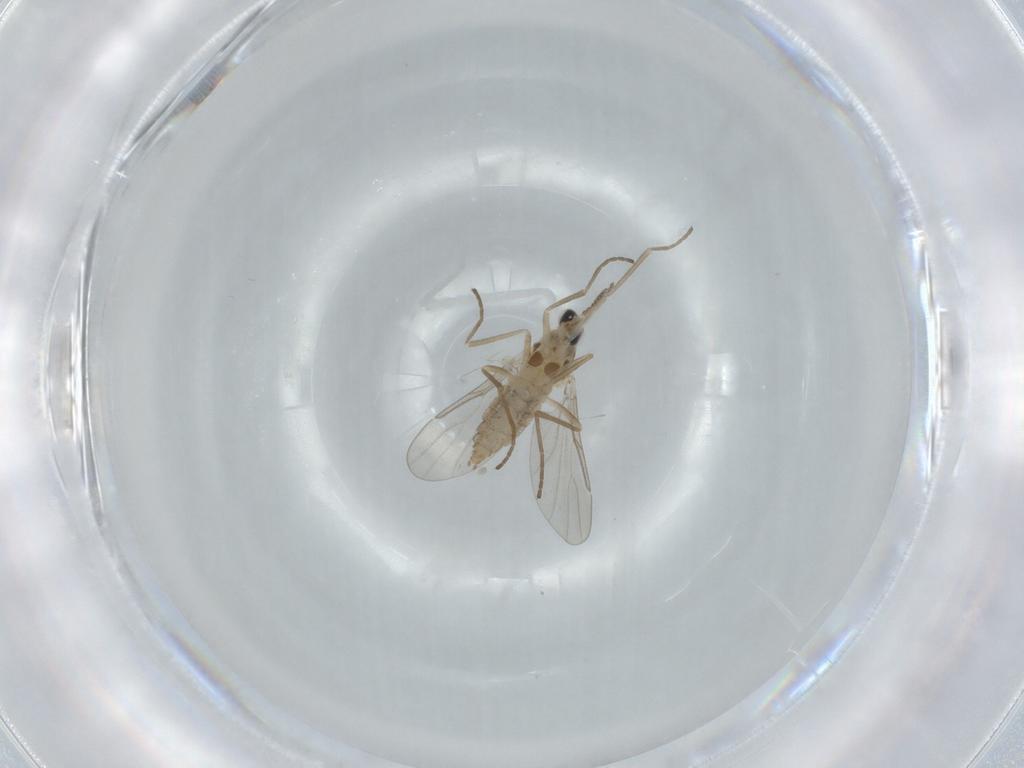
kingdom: Animalia
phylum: Arthropoda
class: Insecta
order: Diptera
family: Cecidomyiidae
